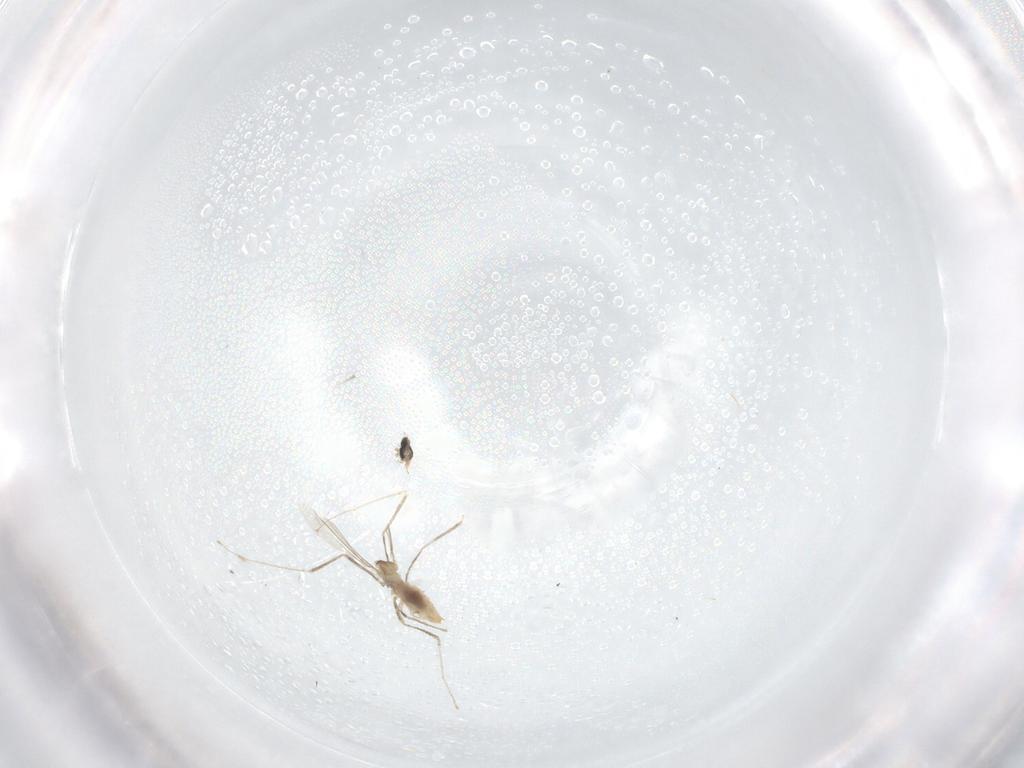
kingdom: Animalia
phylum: Arthropoda
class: Insecta
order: Diptera
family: Cecidomyiidae
